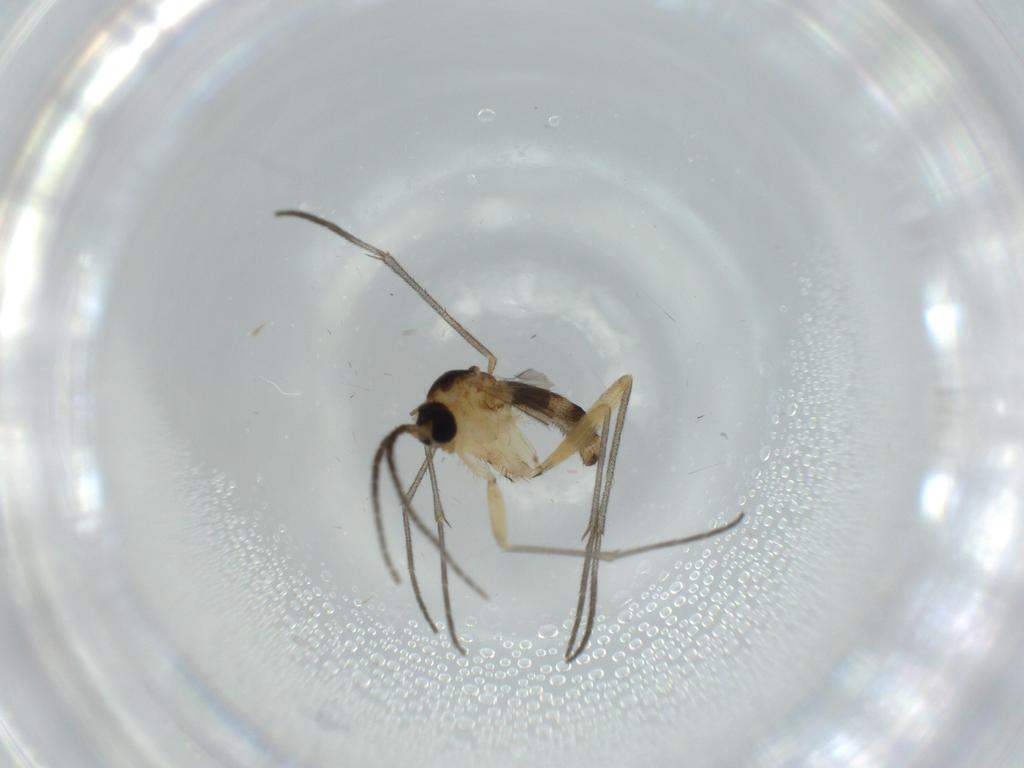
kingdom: Animalia
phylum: Arthropoda
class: Insecta
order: Diptera
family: Sciaridae
